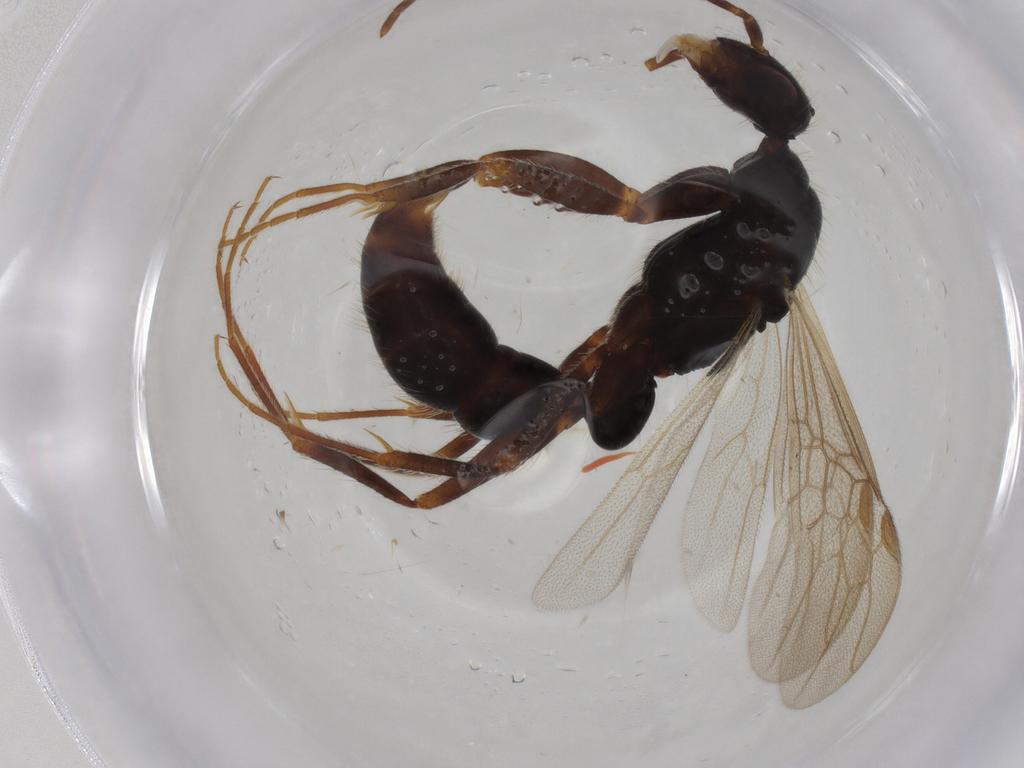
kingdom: Animalia
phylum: Arthropoda
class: Insecta
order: Hymenoptera
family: Formicidae
